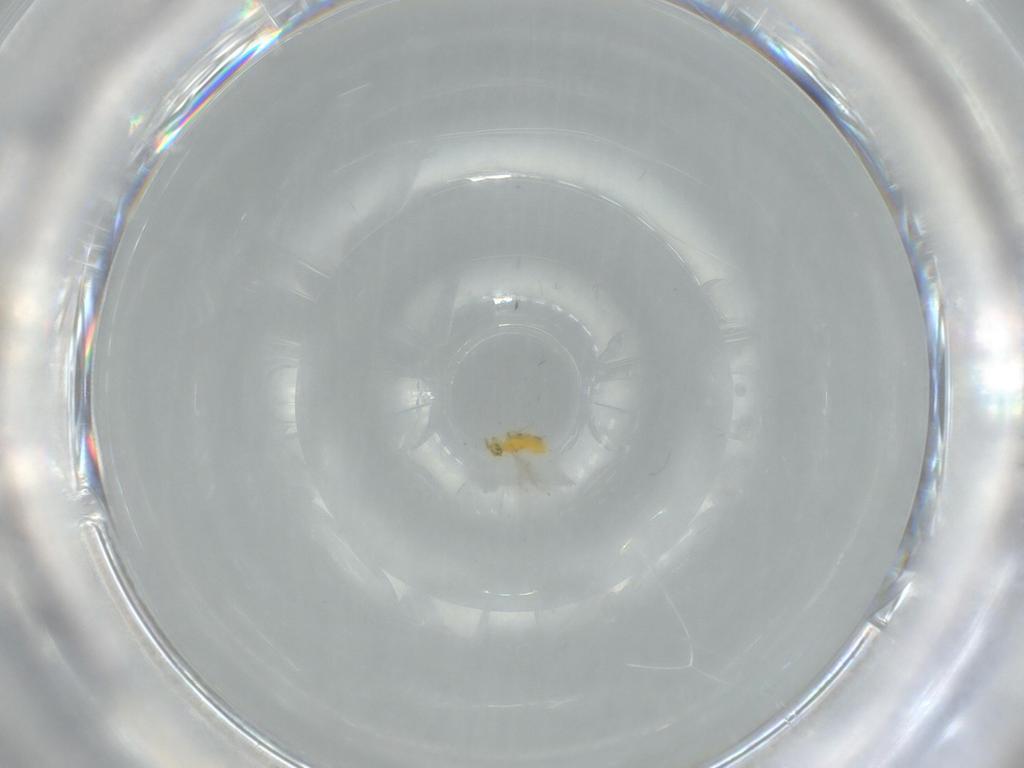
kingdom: Animalia
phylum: Arthropoda
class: Insecta
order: Hymenoptera
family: Aphelinidae
